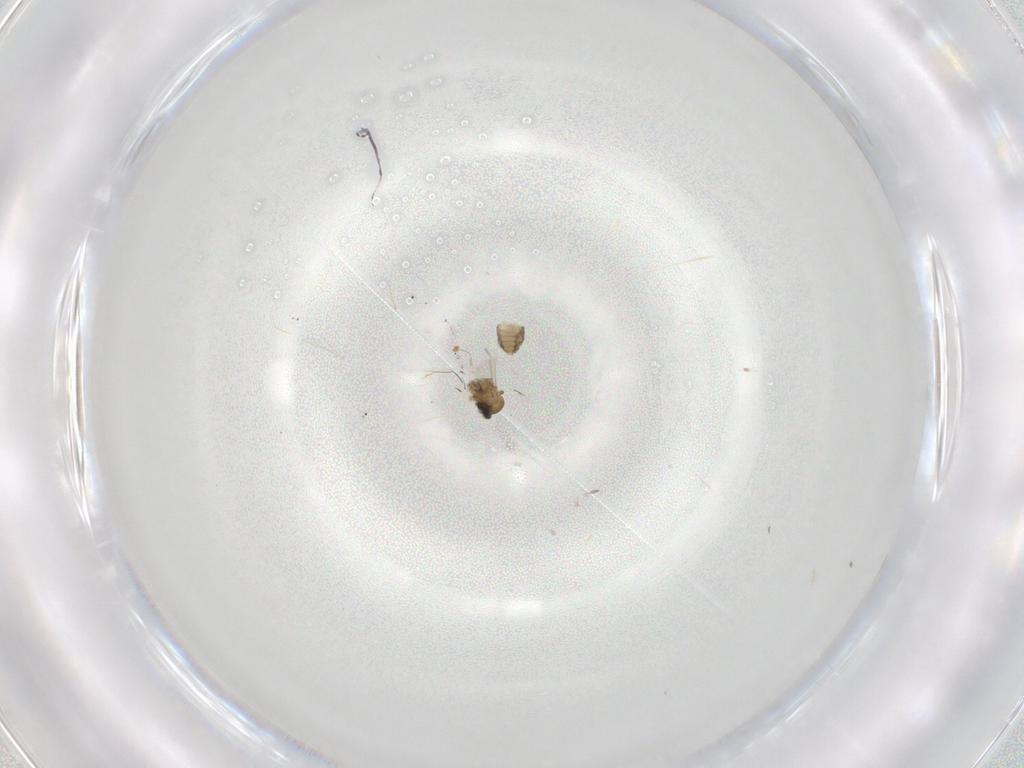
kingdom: Animalia
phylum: Arthropoda
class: Insecta
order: Diptera
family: Cecidomyiidae
